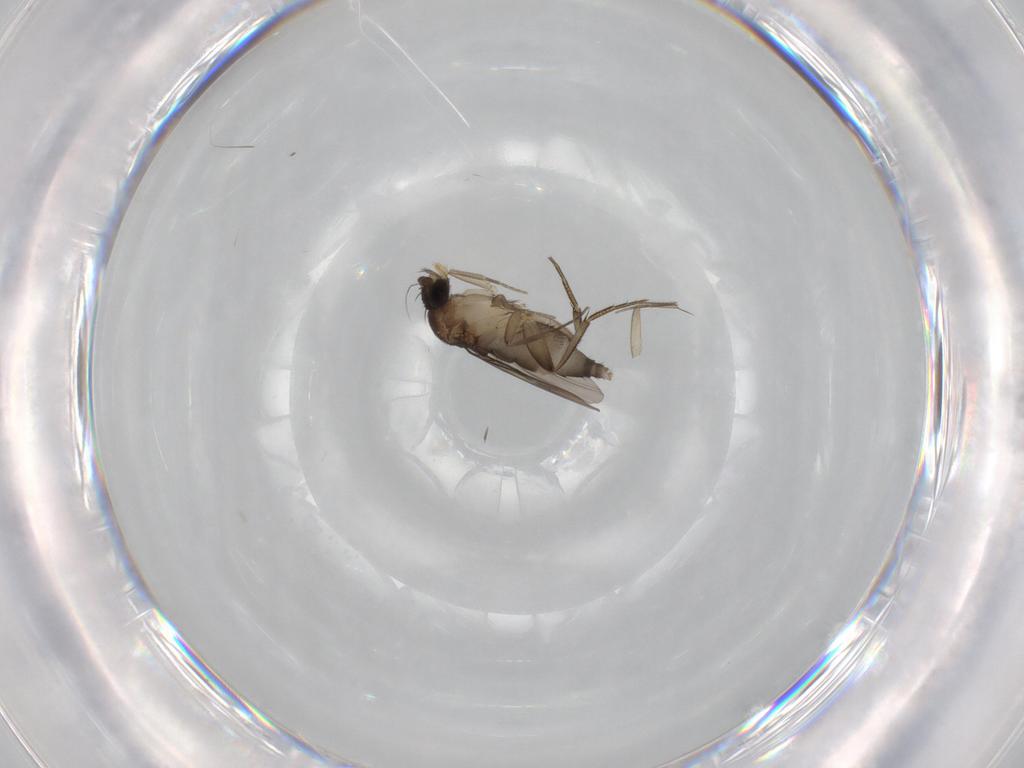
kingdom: Animalia
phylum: Arthropoda
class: Insecta
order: Diptera
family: Phoridae
